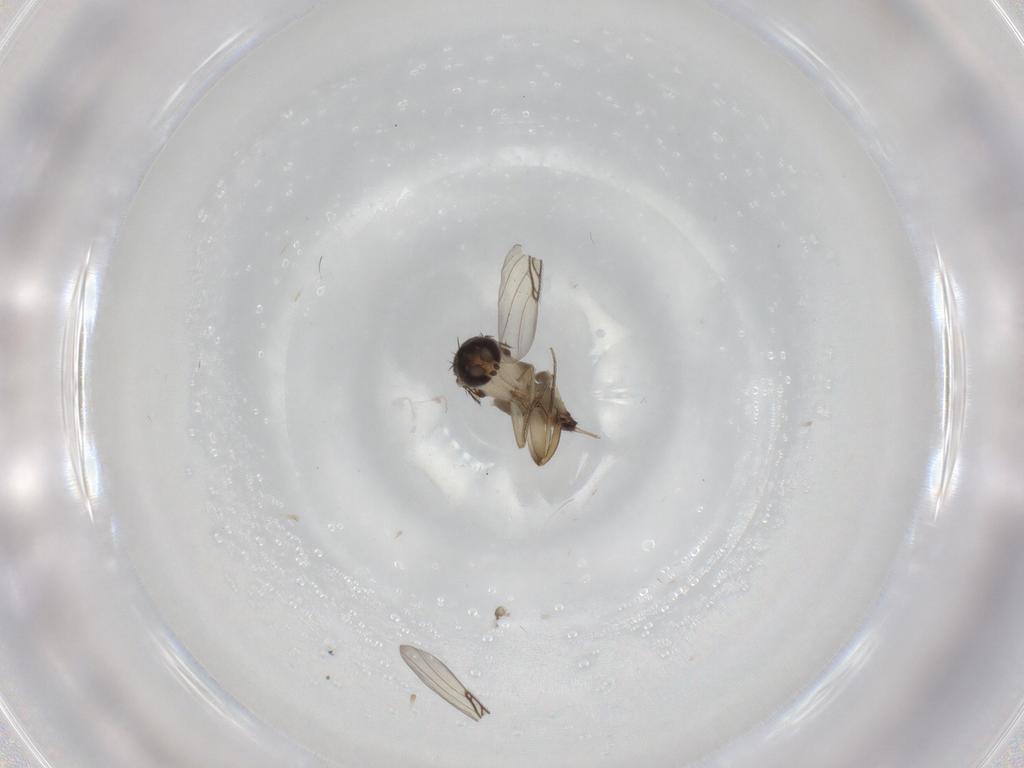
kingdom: Animalia
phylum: Arthropoda
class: Insecta
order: Diptera
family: Phoridae
